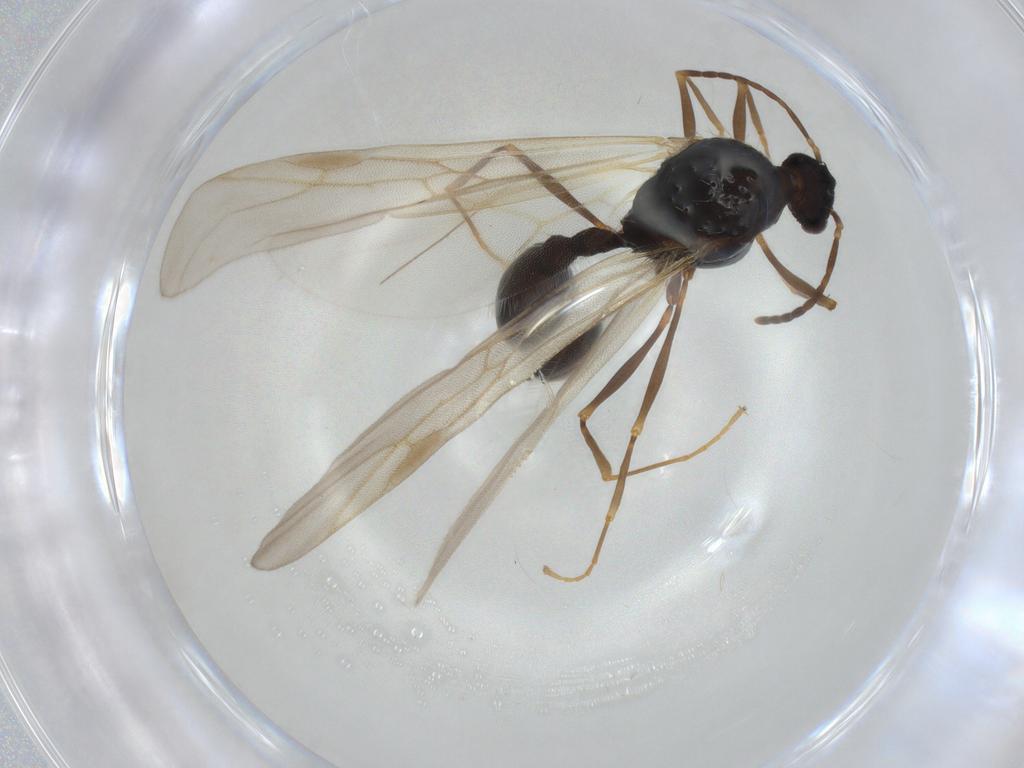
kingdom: Animalia
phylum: Arthropoda
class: Insecta
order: Hymenoptera
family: Formicidae
